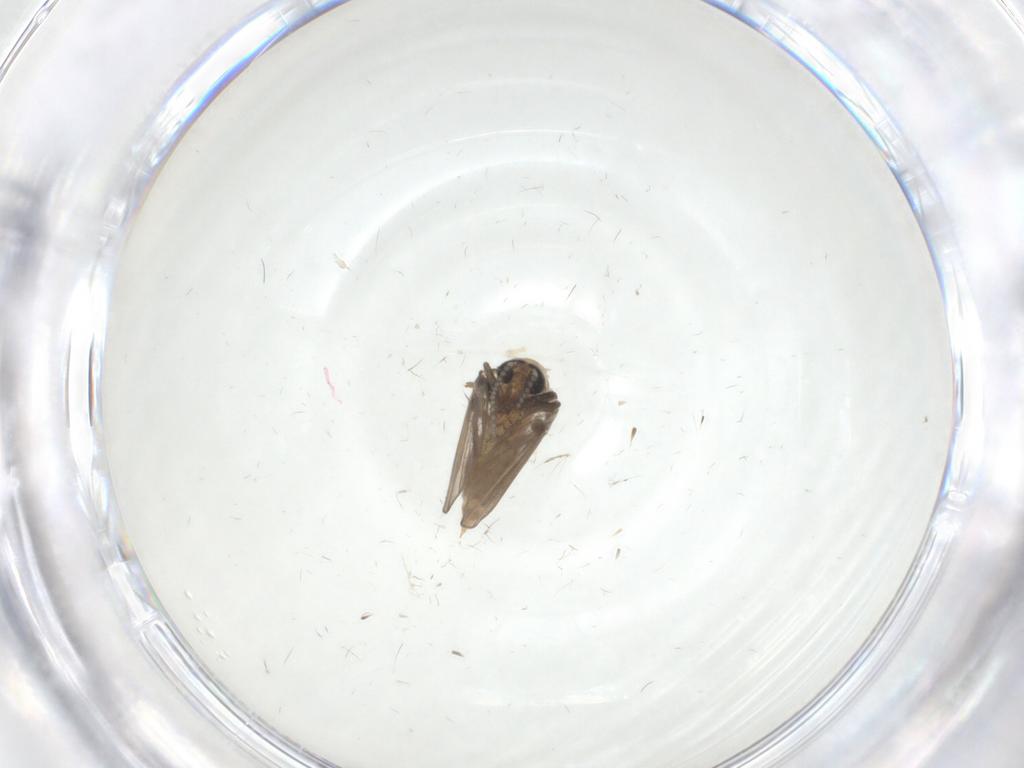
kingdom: Animalia
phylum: Arthropoda
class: Insecta
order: Diptera
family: Psychodidae
